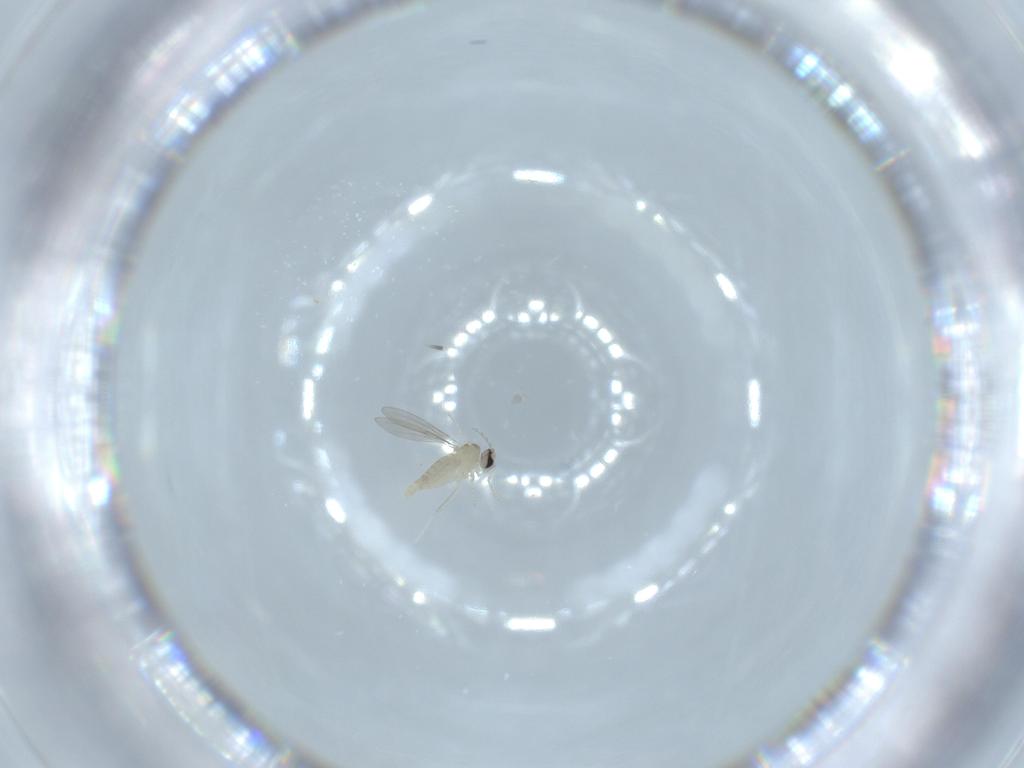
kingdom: Animalia
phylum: Arthropoda
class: Insecta
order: Diptera
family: Cecidomyiidae
